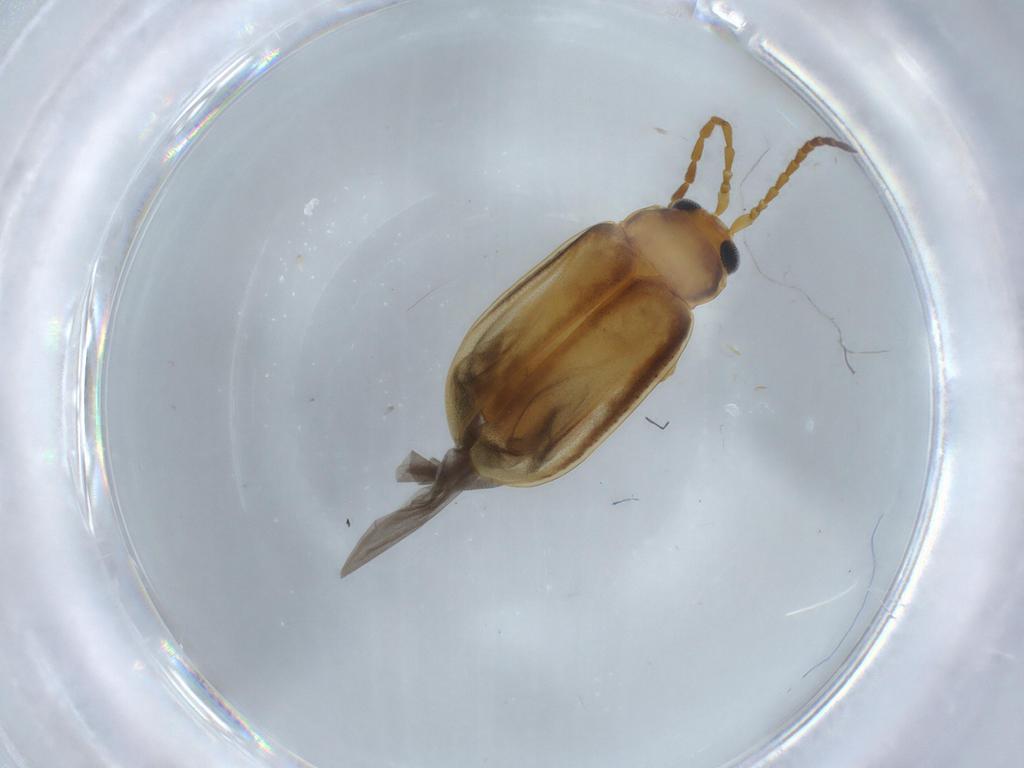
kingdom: Animalia
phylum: Arthropoda
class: Insecta
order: Coleoptera
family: Chrysomelidae
